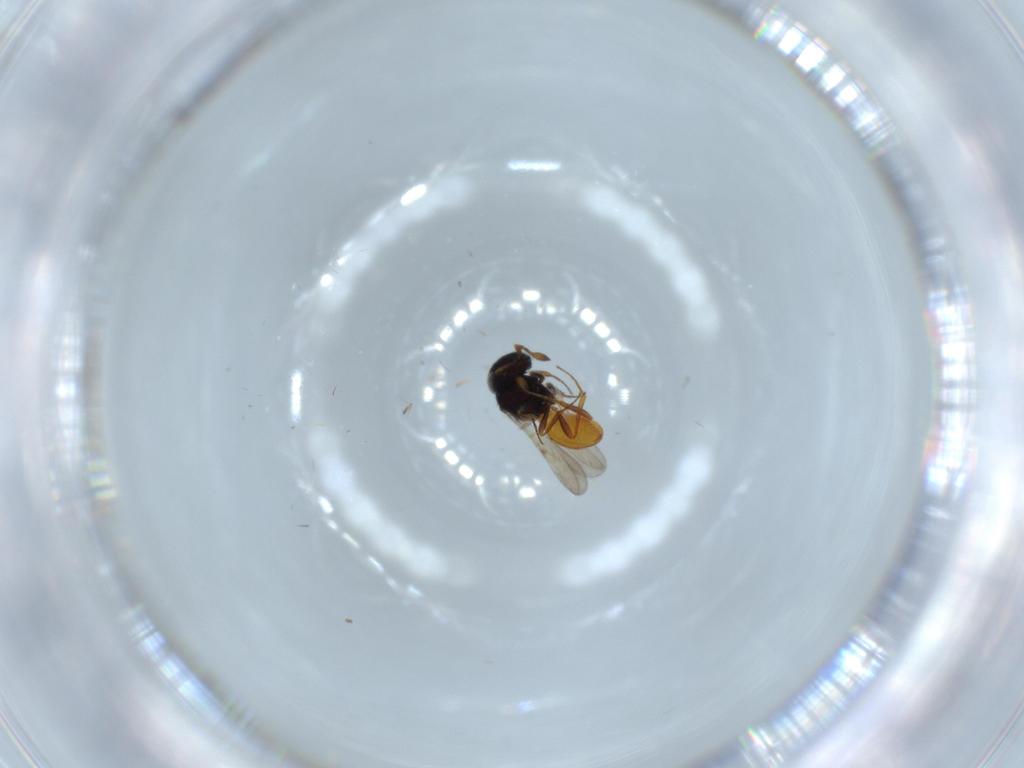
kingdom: Animalia
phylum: Arthropoda
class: Insecta
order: Hymenoptera
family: Scelionidae
